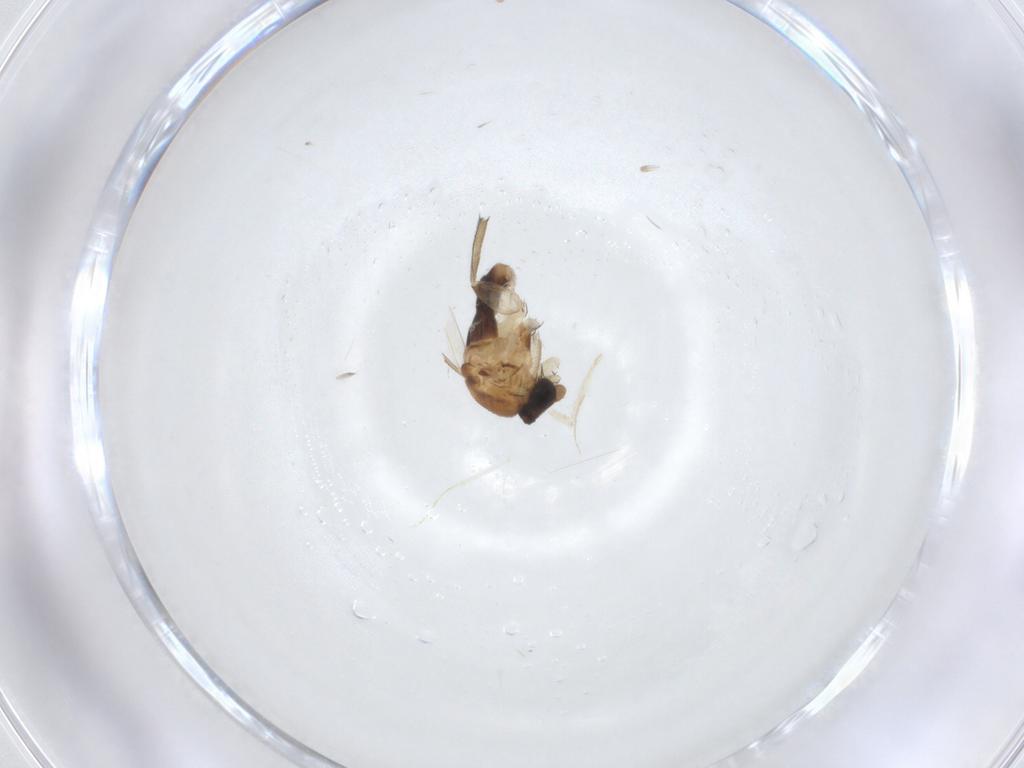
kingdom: Animalia
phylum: Arthropoda
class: Insecta
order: Diptera
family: Phoridae
